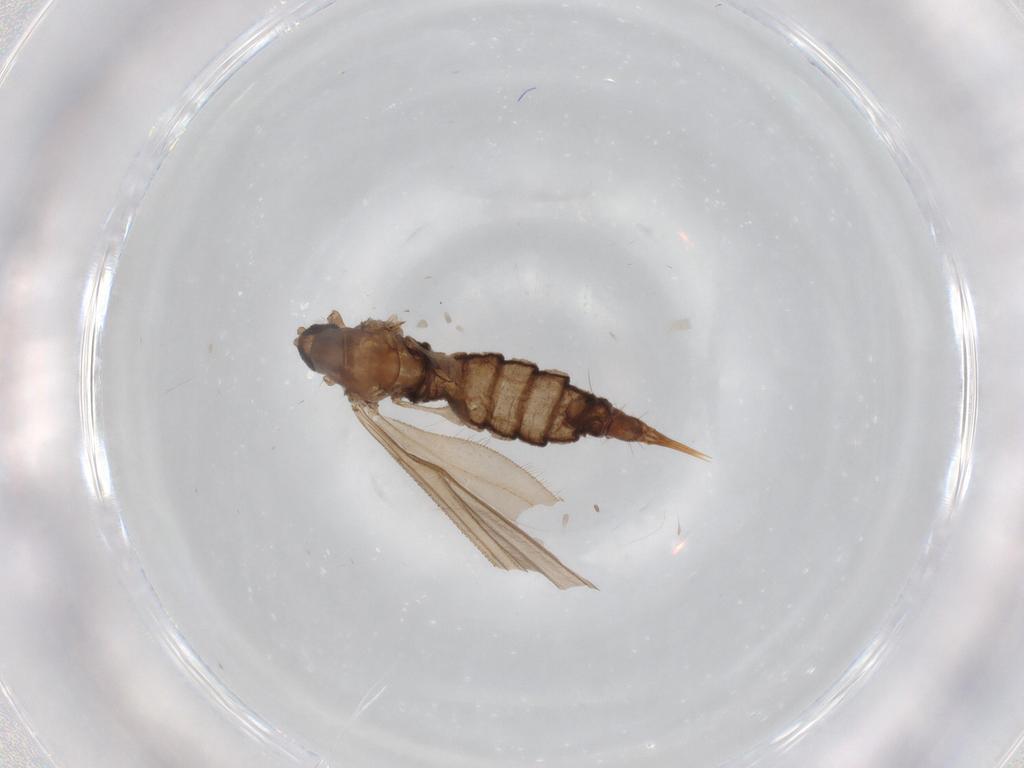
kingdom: Animalia
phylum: Arthropoda
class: Insecta
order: Diptera
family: Limoniidae
